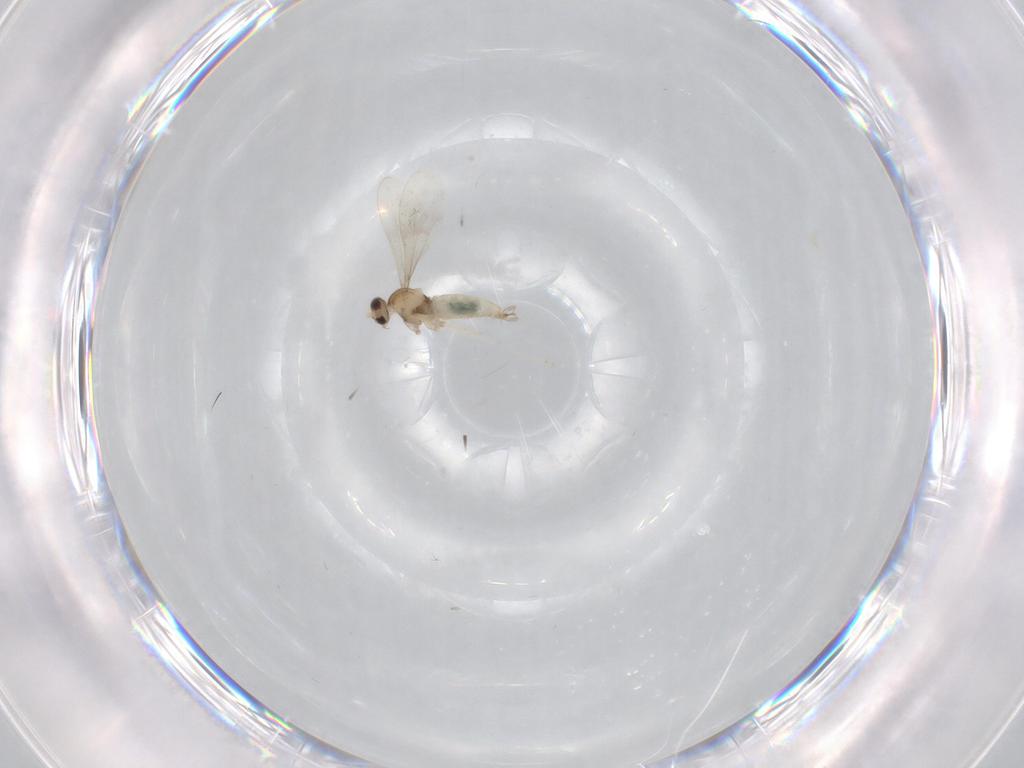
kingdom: Animalia
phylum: Arthropoda
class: Insecta
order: Diptera
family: Cecidomyiidae
